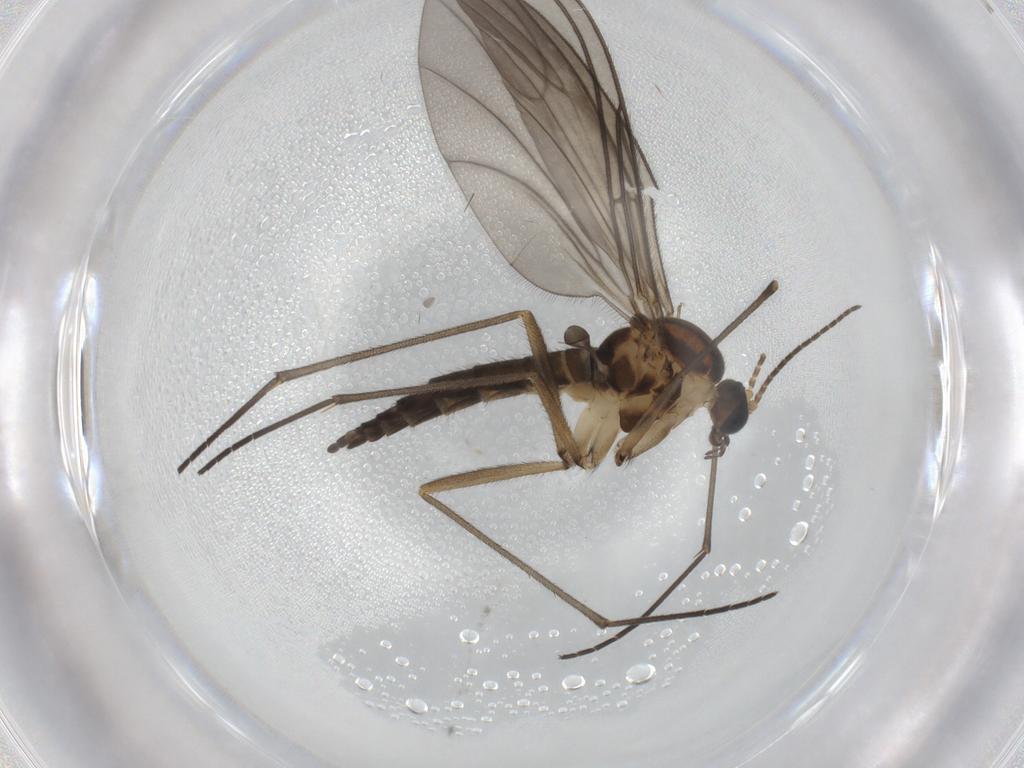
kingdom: Animalia
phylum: Arthropoda
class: Insecta
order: Diptera
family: Sciaridae
